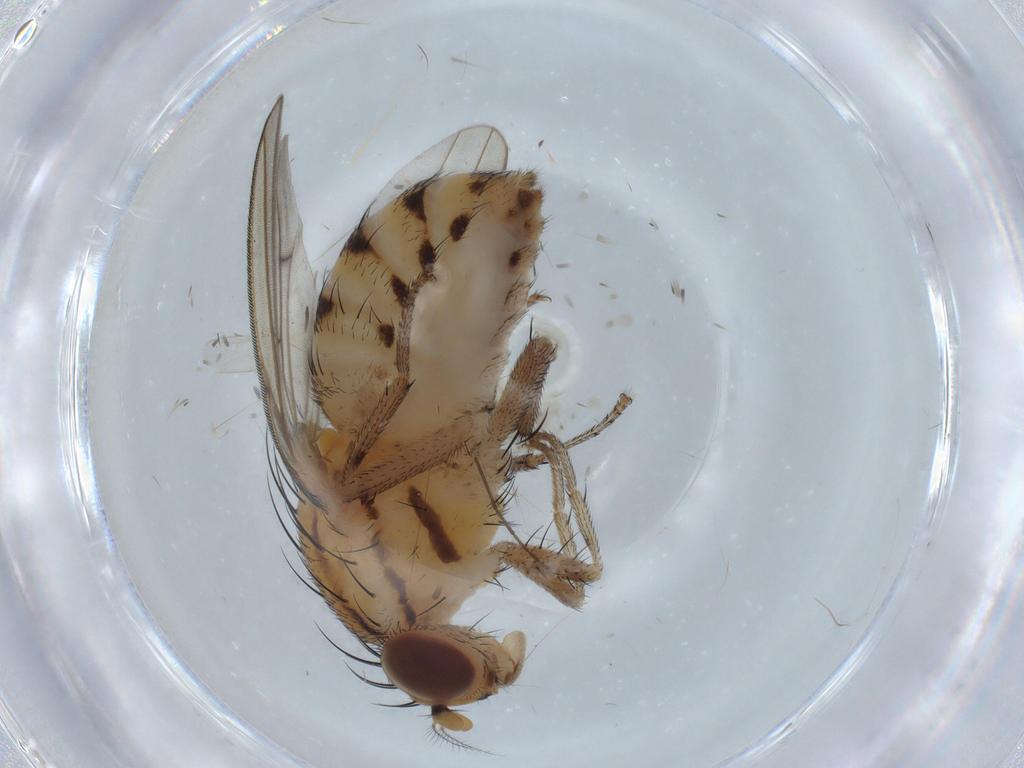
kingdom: Animalia
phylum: Arthropoda
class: Insecta
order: Diptera
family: Lauxaniidae
